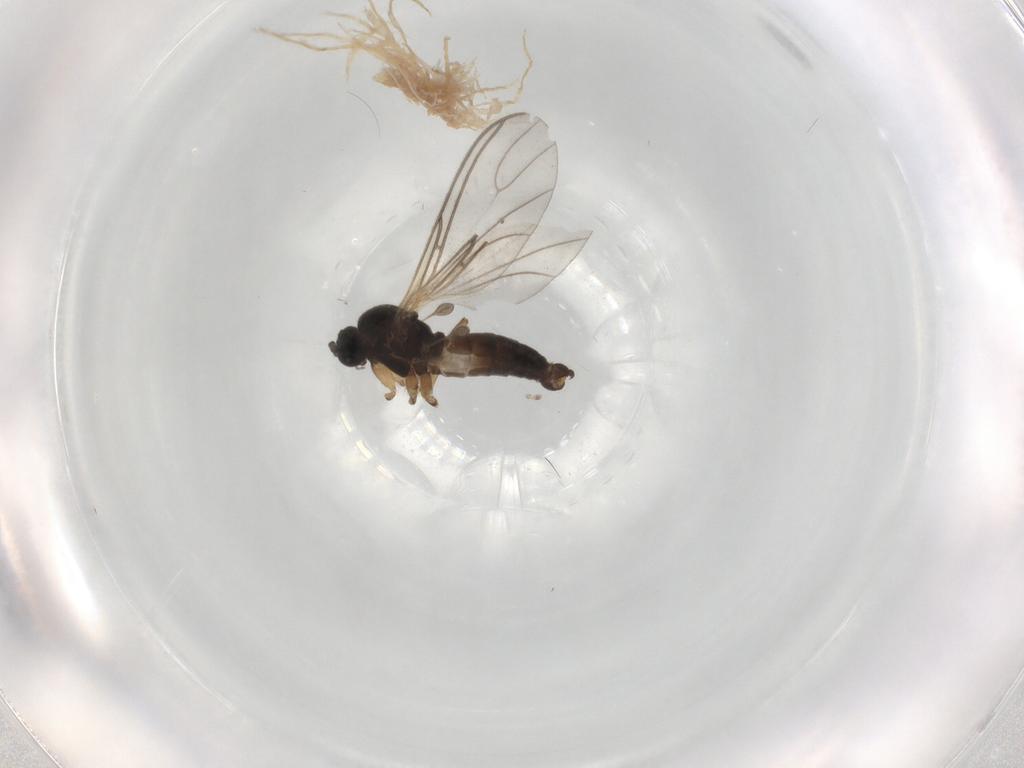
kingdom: Animalia
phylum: Arthropoda
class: Insecta
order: Diptera
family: Sciaridae
